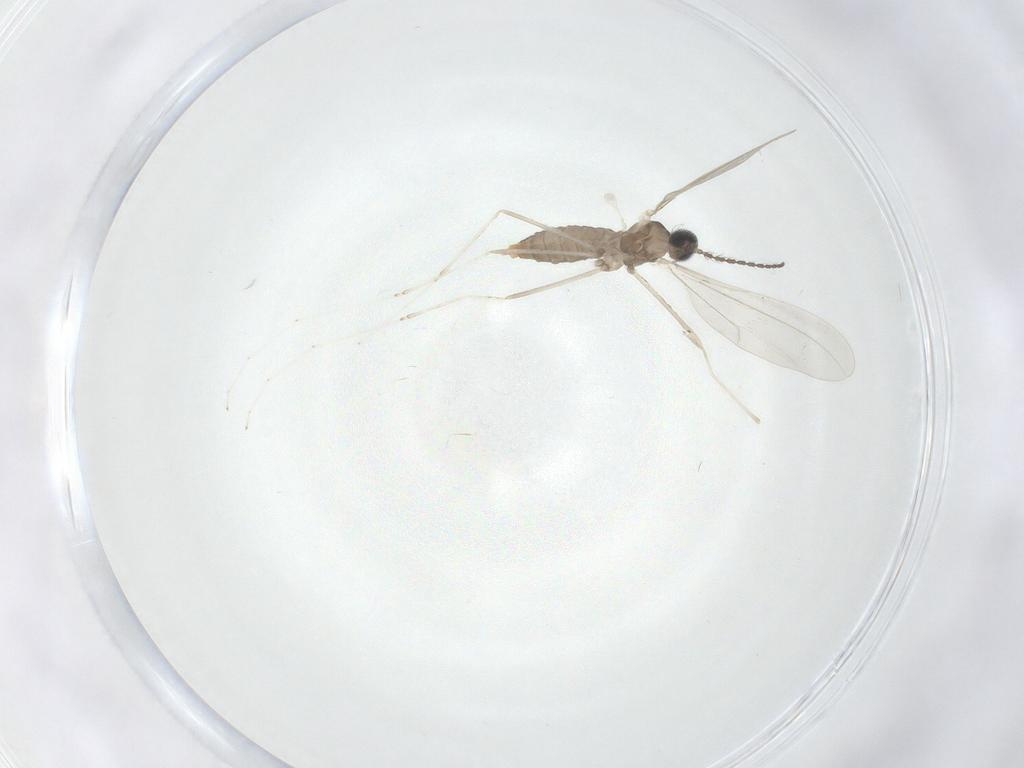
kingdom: Animalia
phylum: Arthropoda
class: Insecta
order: Diptera
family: Cecidomyiidae
